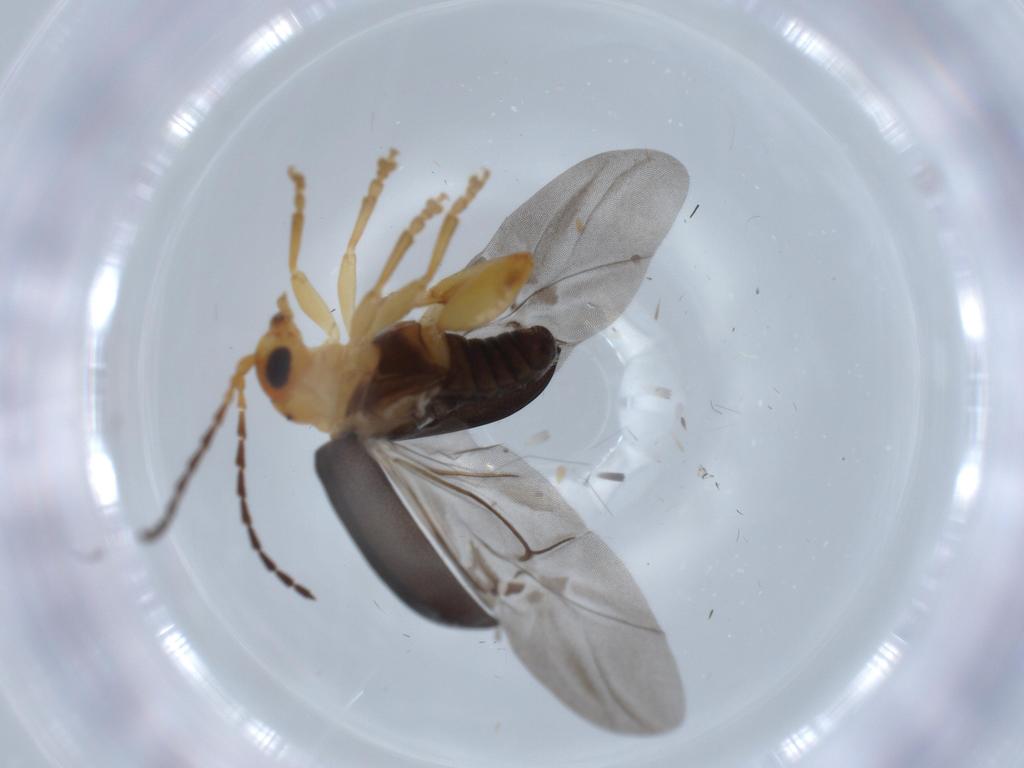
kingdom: Animalia
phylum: Arthropoda
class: Insecta
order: Coleoptera
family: Chrysomelidae
